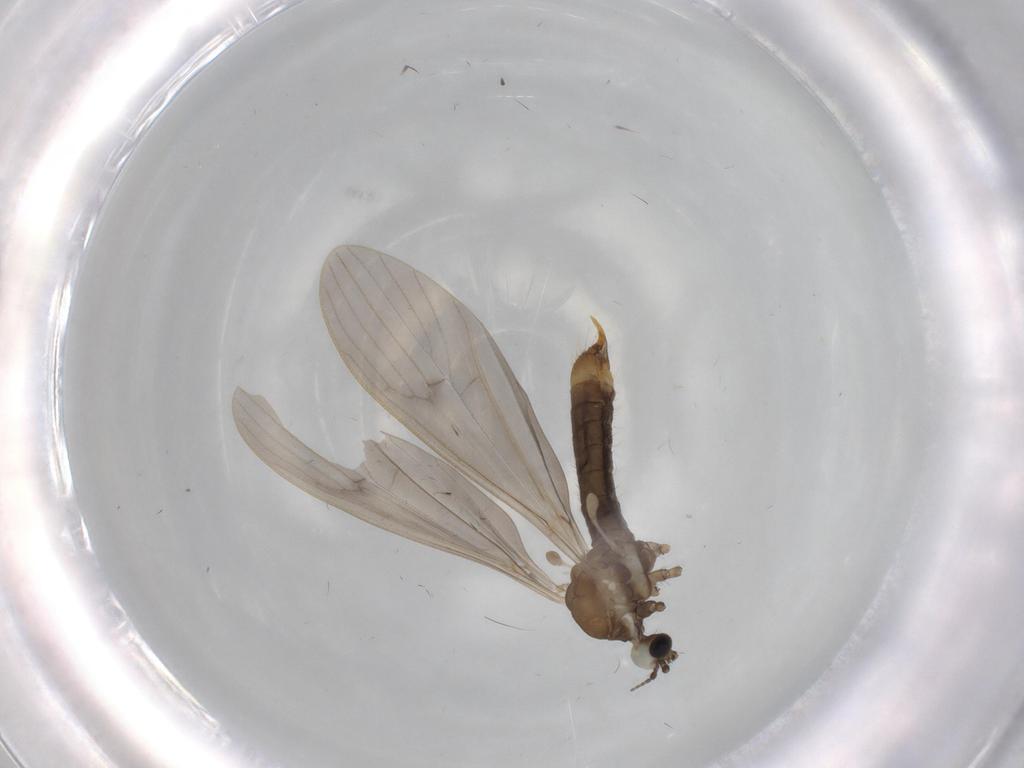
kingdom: Animalia
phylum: Arthropoda
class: Insecta
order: Diptera
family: Limoniidae
